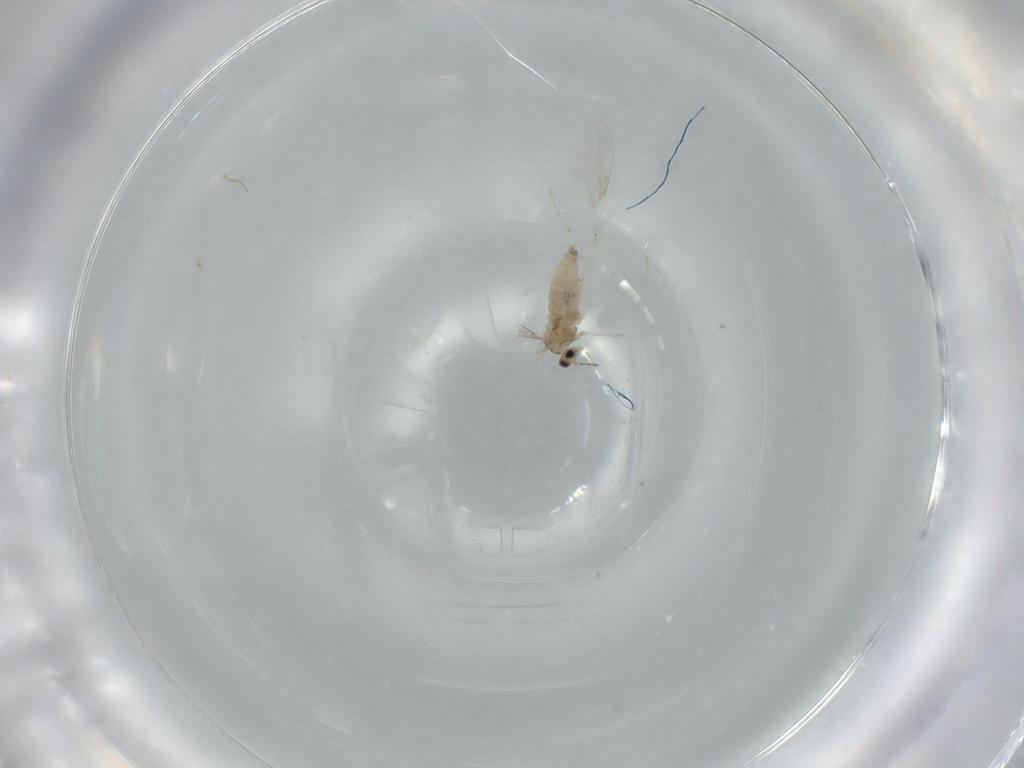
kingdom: Animalia
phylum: Arthropoda
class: Insecta
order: Diptera
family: Cecidomyiidae
